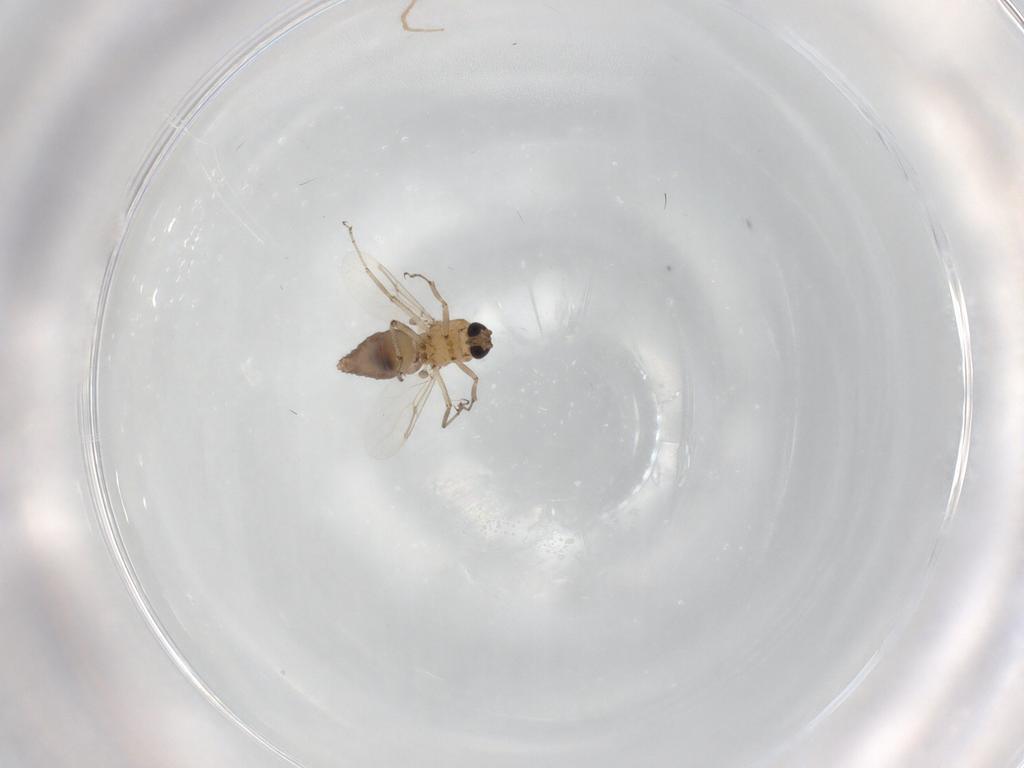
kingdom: Animalia
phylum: Arthropoda
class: Insecta
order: Diptera
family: Ceratopogonidae
